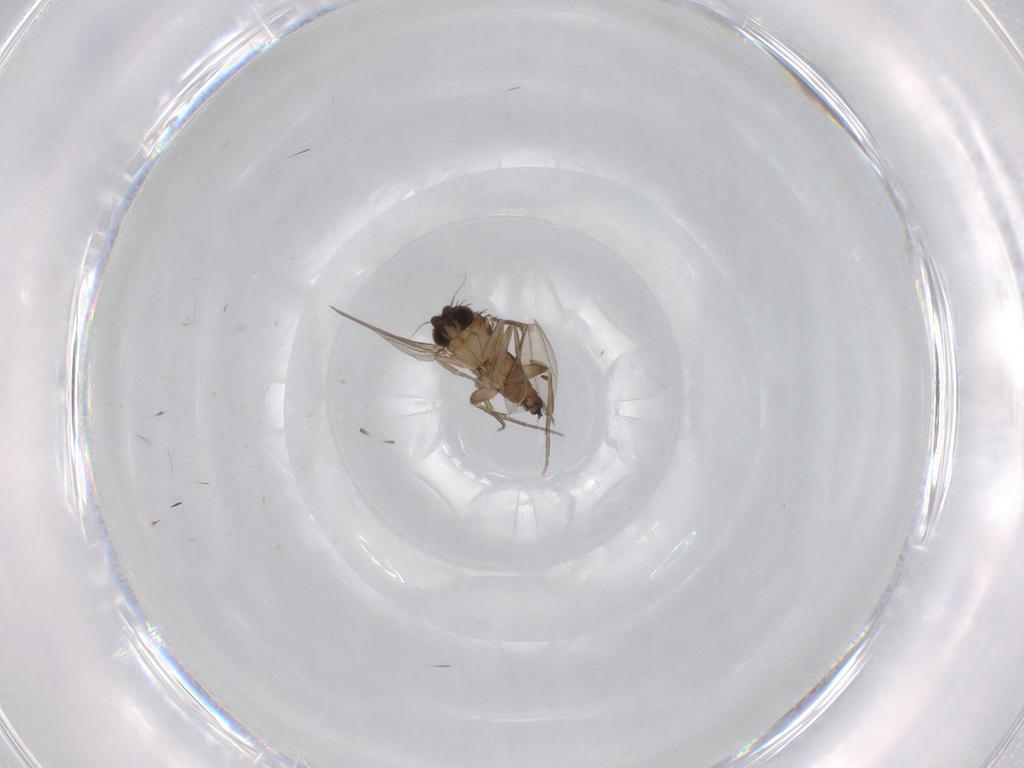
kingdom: Animalia
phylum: Arthropoda
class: Insecta
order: Diptera
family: Phoridae
